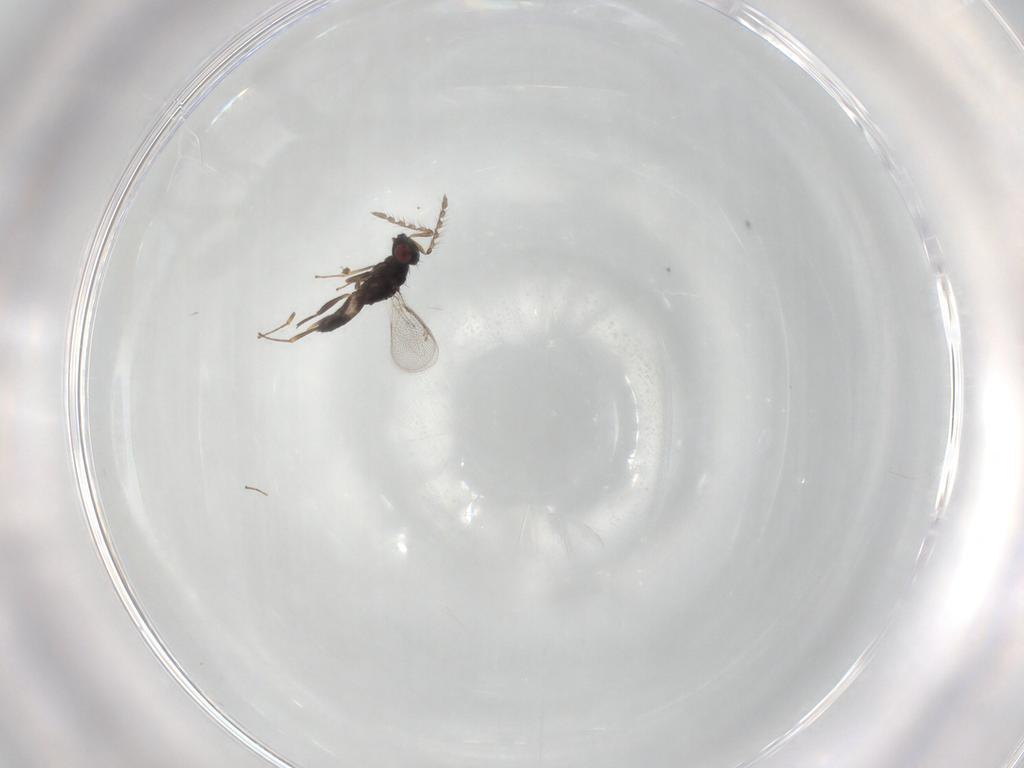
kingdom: Animalia
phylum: Arthropoda
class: Insecta
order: Hymenoptera
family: Eulophidae
